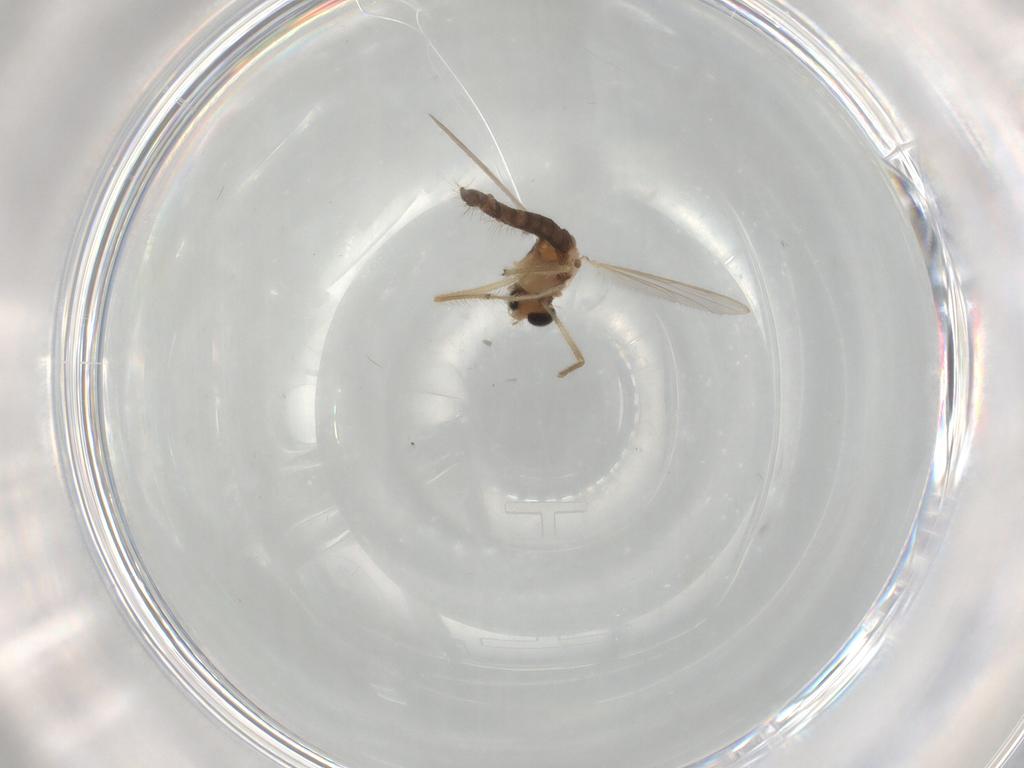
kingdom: Animalia
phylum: Arthropoda
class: Insecta
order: Diptera
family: Chironomidae
